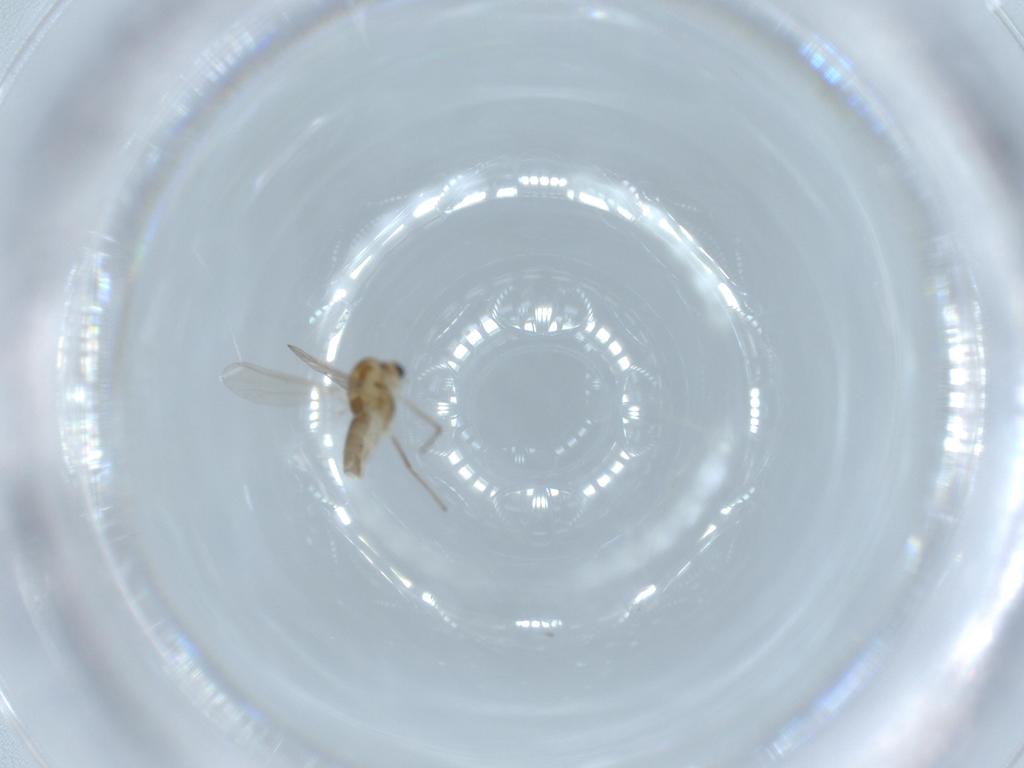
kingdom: Animalia
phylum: Arthropoda
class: Insecta
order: Diptera
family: Chironomidae
